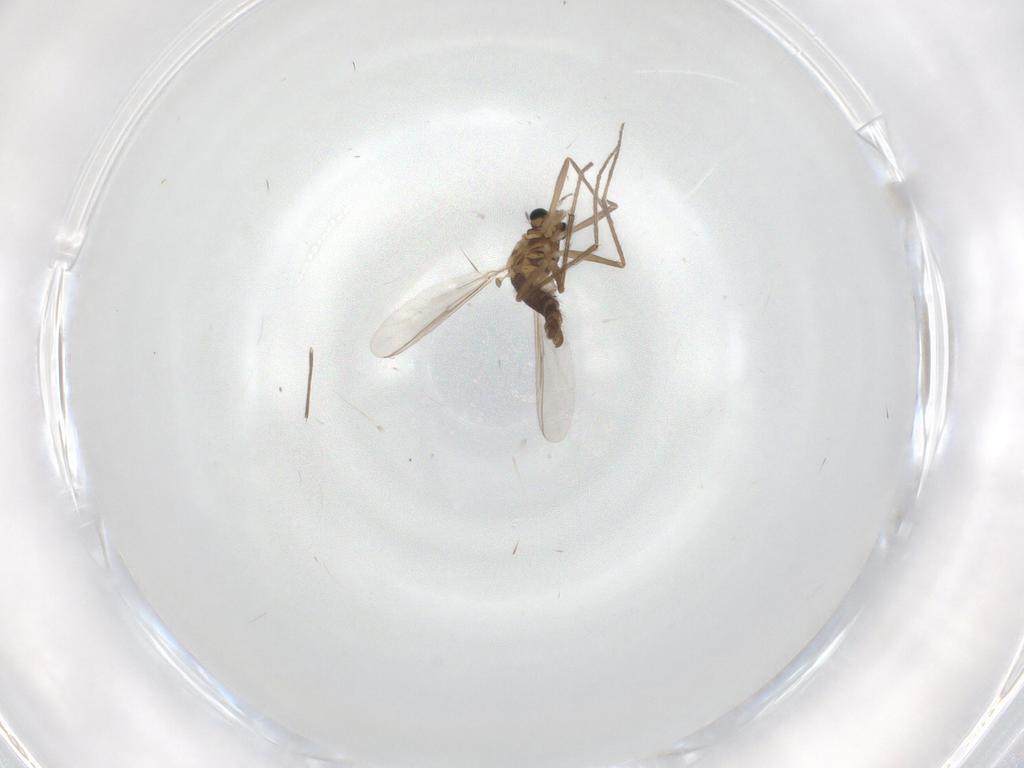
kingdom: Animalia
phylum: Arthropoda
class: Insecta
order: Diptera
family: Chironomidae
